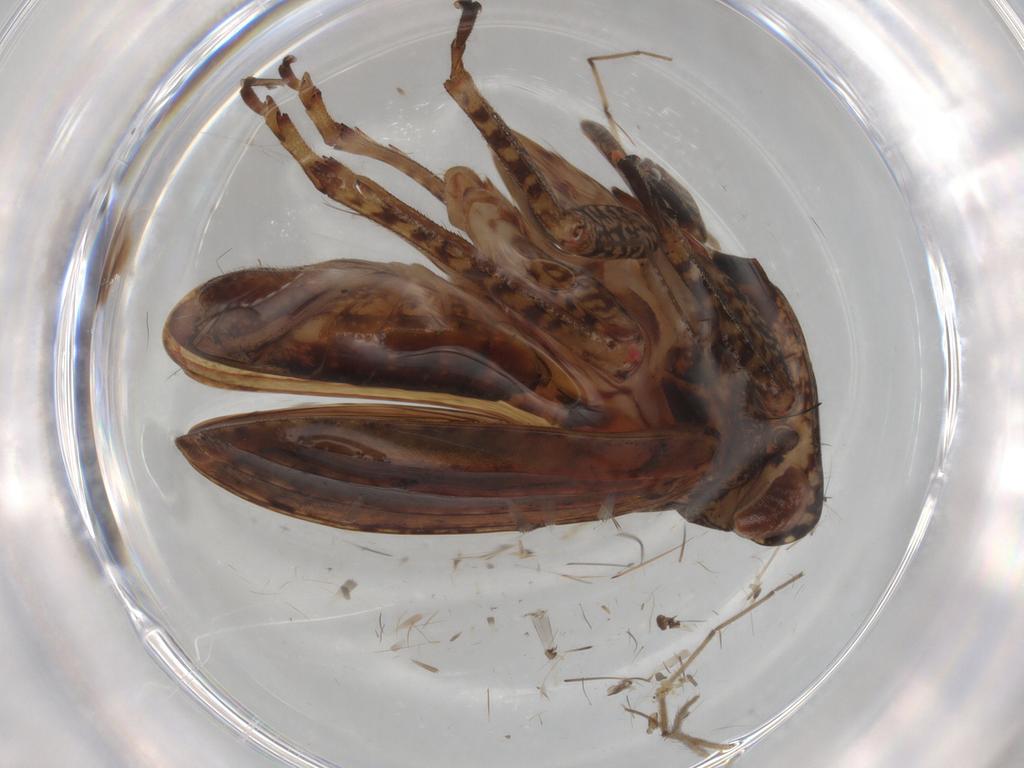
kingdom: Animalia
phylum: Arthropoda
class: Insecta
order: Hemiptera
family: Tropiduchidae
